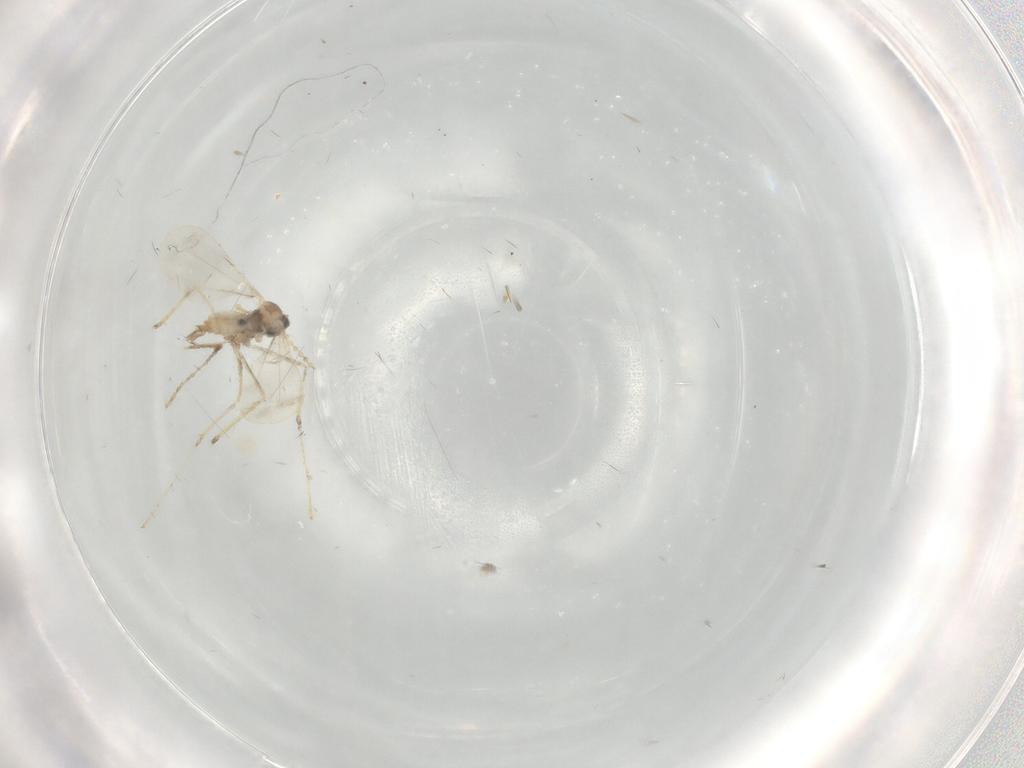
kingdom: Animalia
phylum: Arthropoda
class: Insecta
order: Diptera
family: Cecidomyiidae
